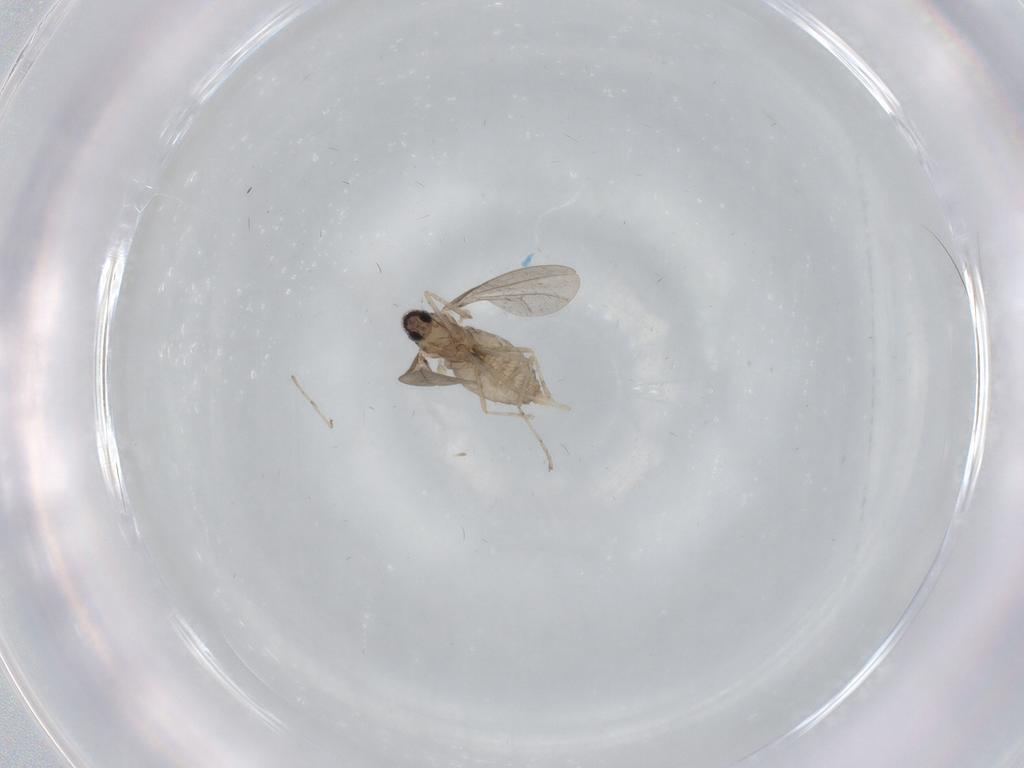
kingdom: Animalia
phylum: Arthropoda
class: Insecta
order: Diptera
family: Cecidomyiidae
